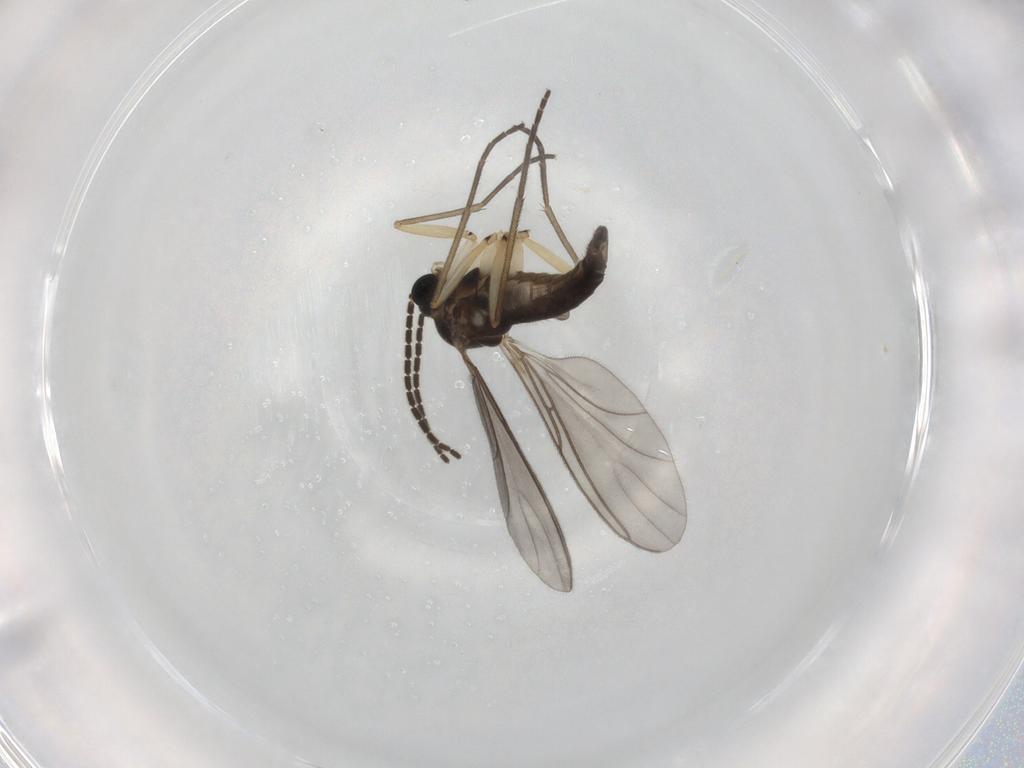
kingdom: Animalia
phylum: Arthropoda
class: Insecta
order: Diptera
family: Sciaridae
